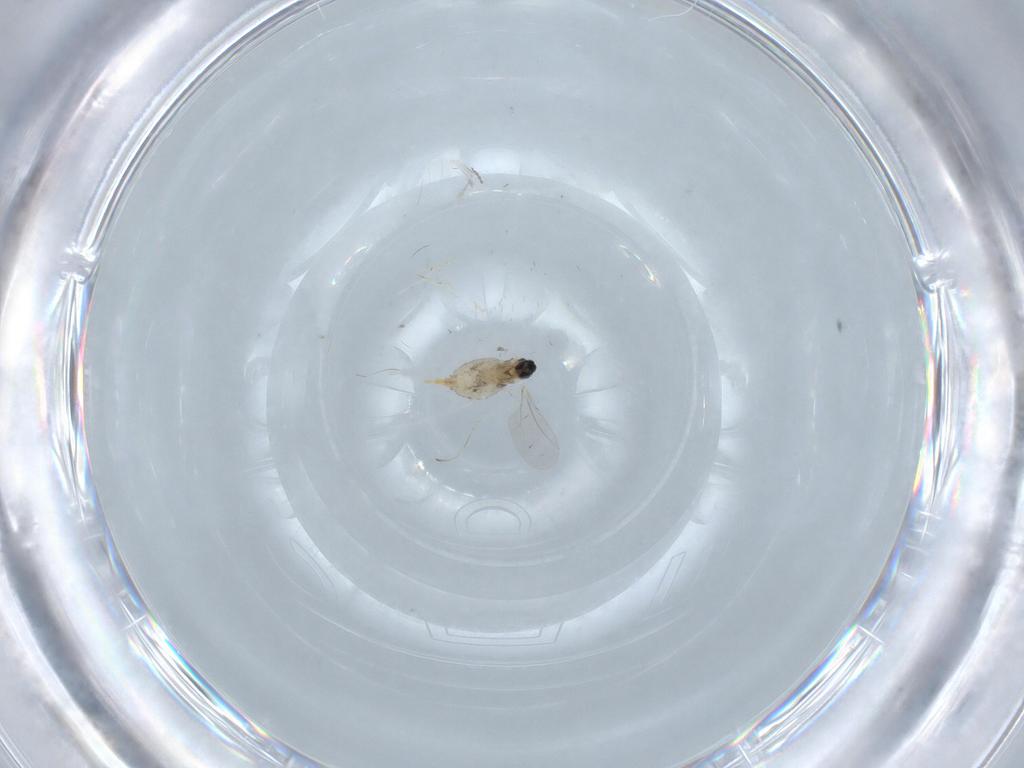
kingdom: Animalia
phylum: Arthropoda
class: Insecta
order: Diptera
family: Cecidomyiidae
